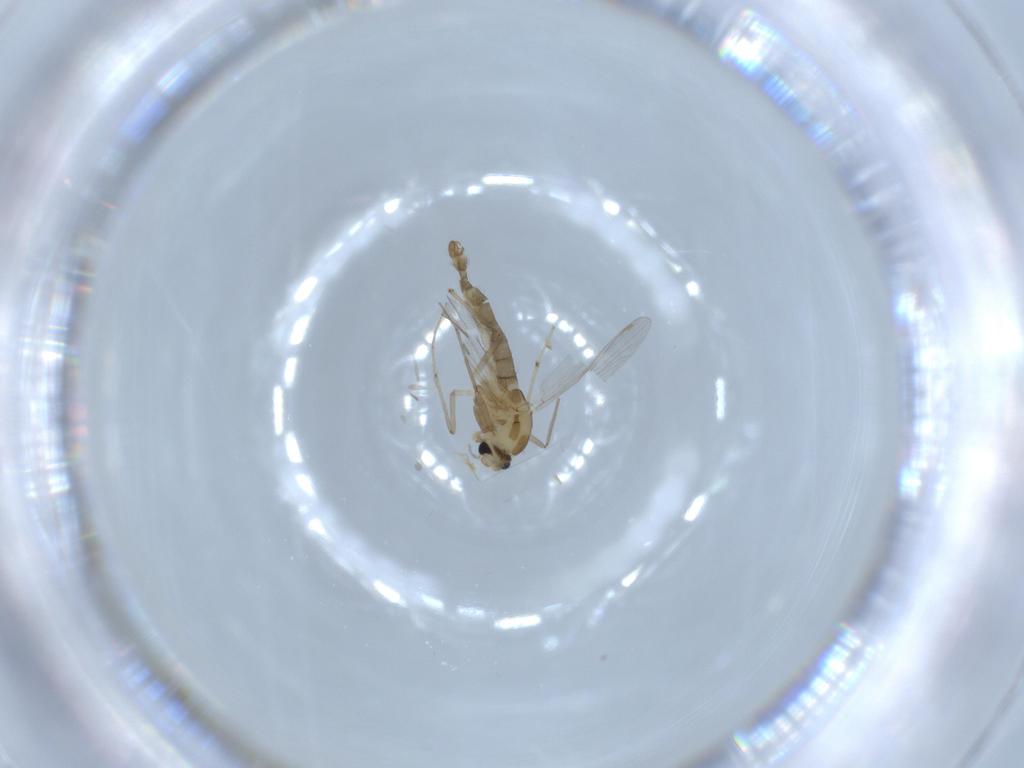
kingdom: Animalia
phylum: Arthropoda
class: Insecta
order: Diptera
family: Chironomidae
